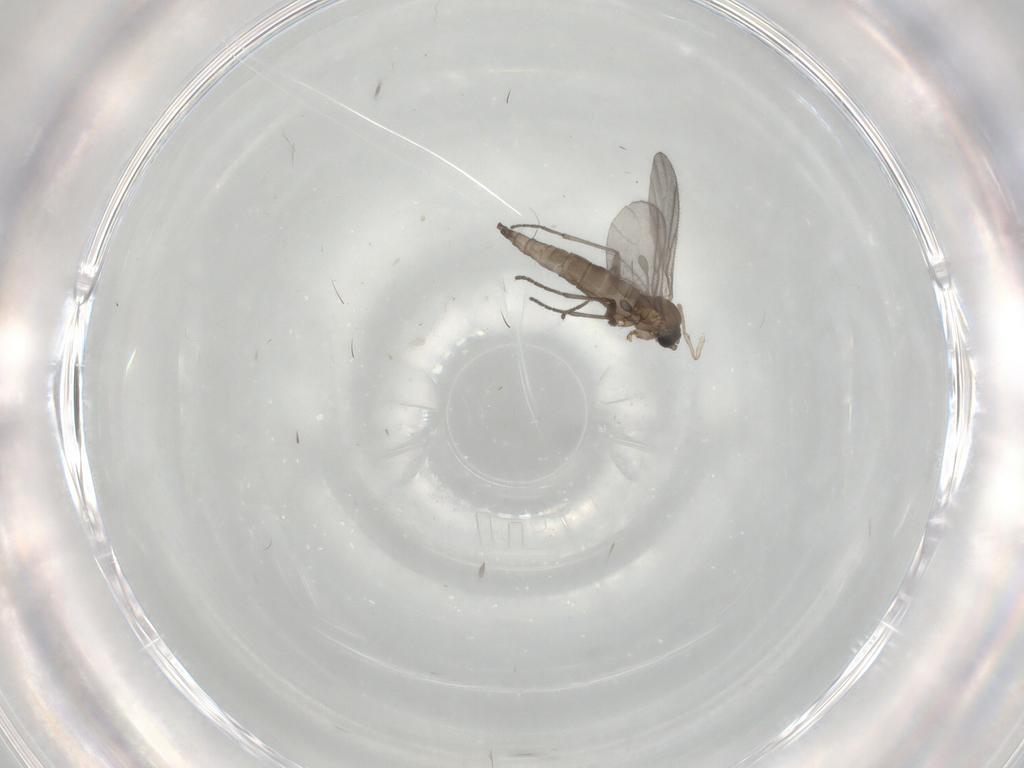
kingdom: Animalia
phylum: Arthropoda
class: Insecta
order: Diptera
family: Sciaridae
